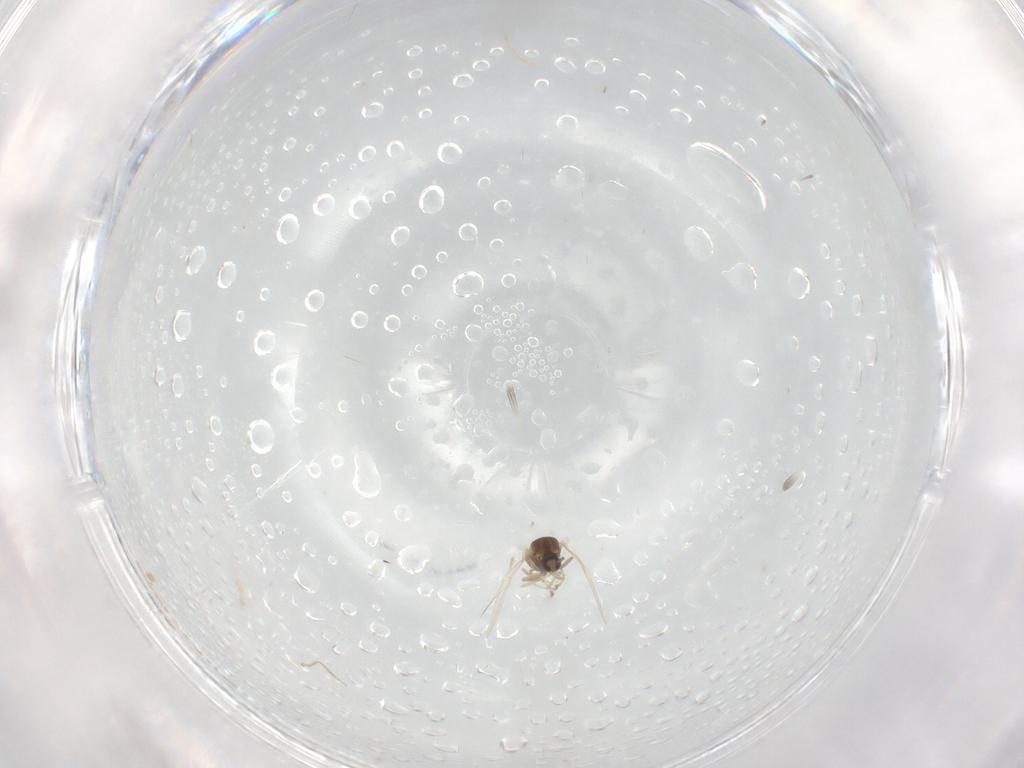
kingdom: Animalia
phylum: Arthropoda
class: Insecta
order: Diptera
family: Cecidomyiidae
